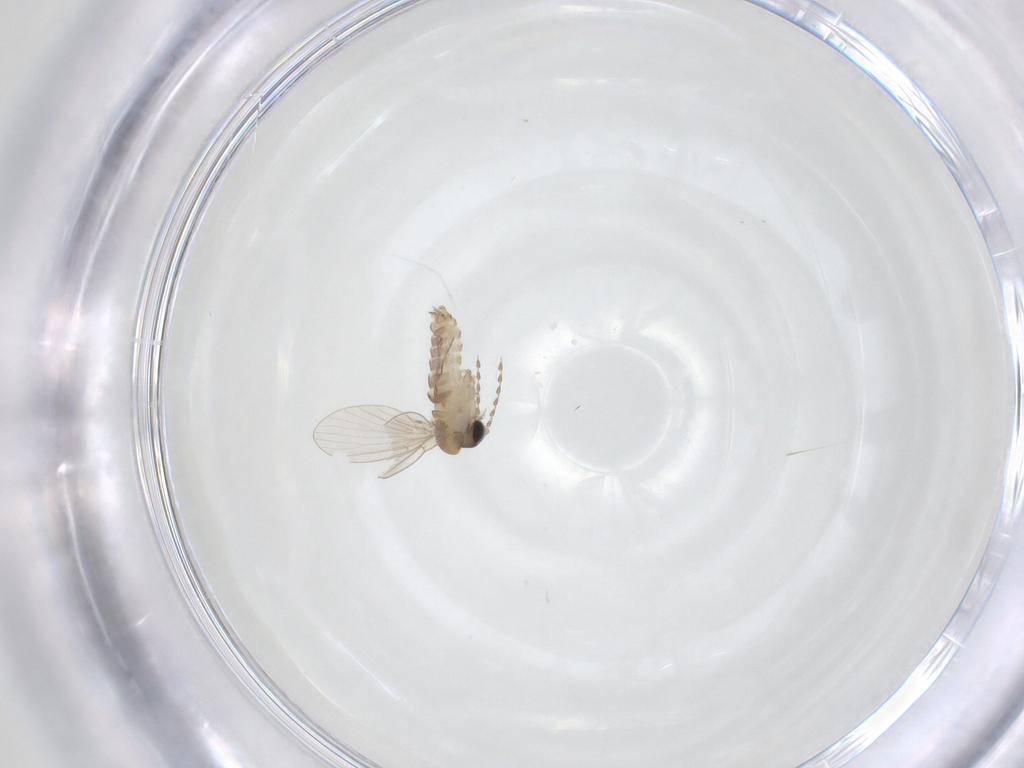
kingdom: Animalia
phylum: Arthropoda
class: Insecta
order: Diptera
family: Psychodidae
